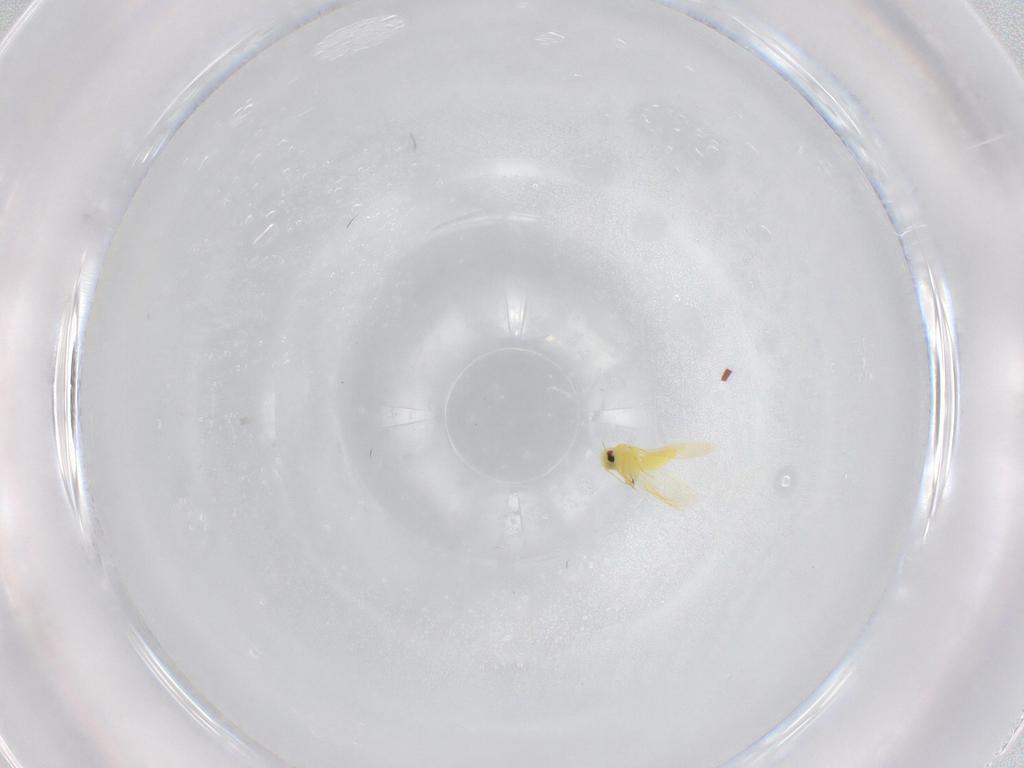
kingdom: Animalia
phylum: Arthropoda
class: Insecta
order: Hemiptera
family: Aleyrodidae
